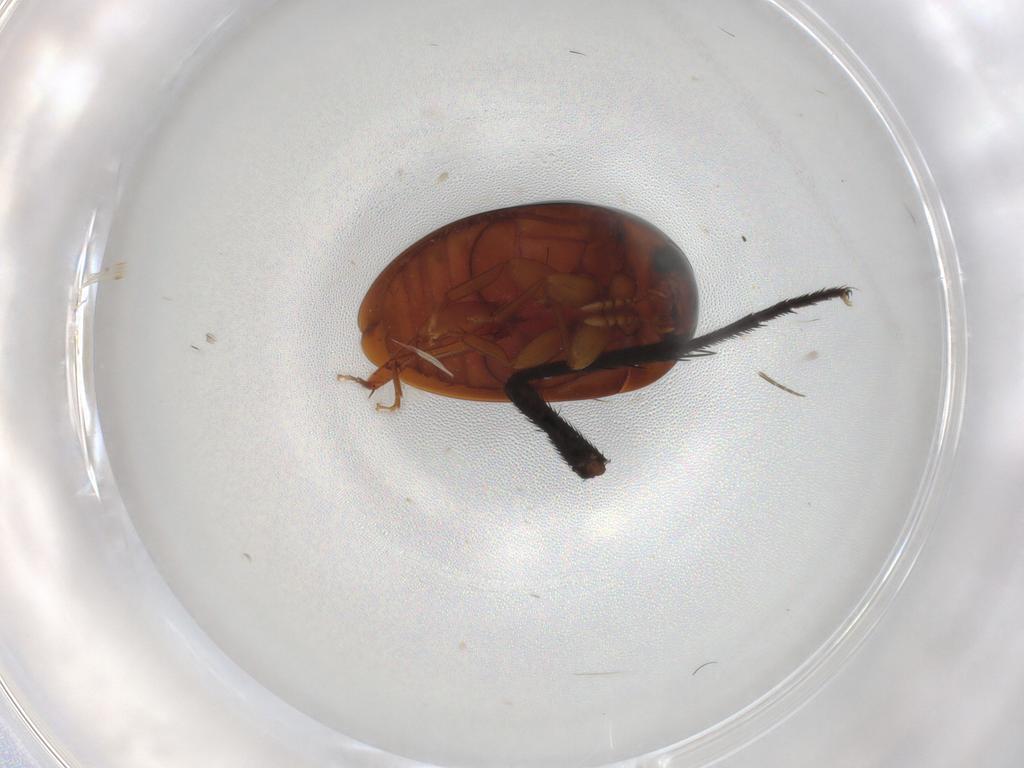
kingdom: Animalia
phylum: Arthropoda
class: Insecta
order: Coleoptera
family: Phalacridae
